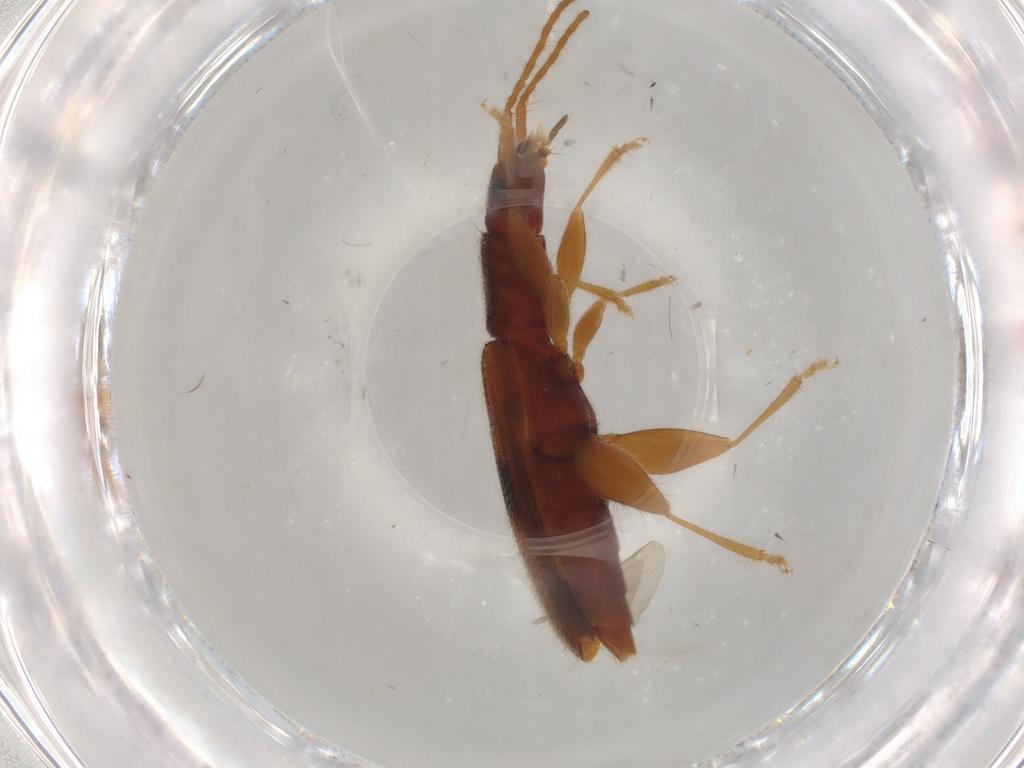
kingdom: Animalia
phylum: Arthropoda
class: Insecta
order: Coleoptera
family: Silvanidae
